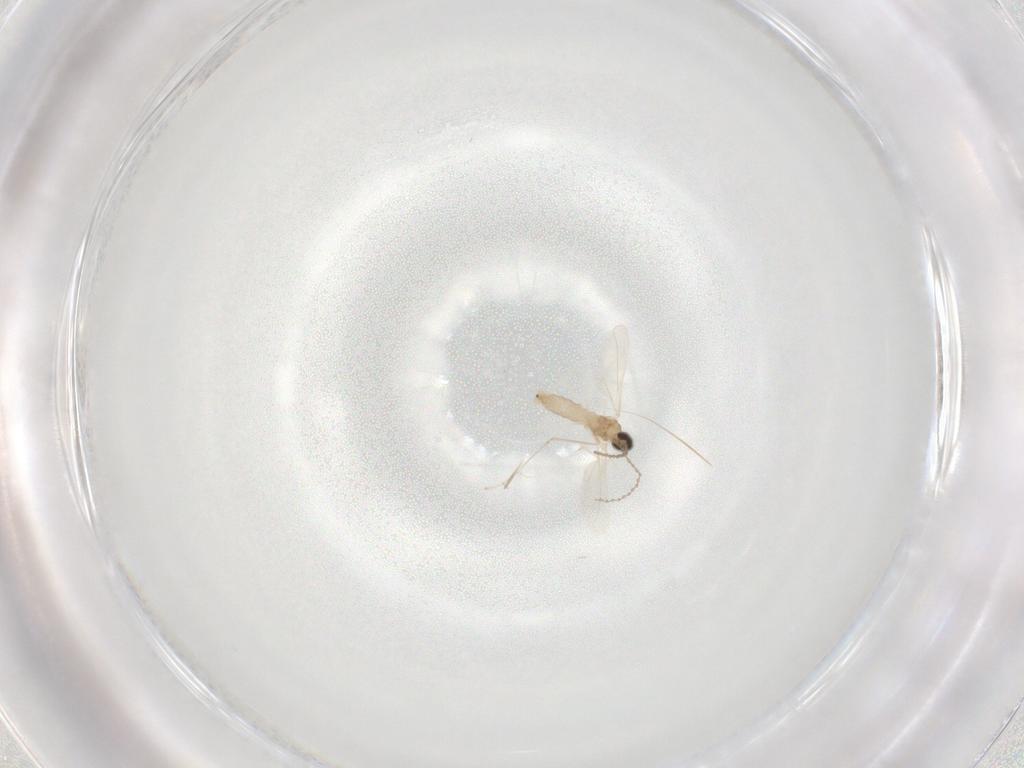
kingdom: Animalia
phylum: Arthropoda
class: Insecta
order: Diptera
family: Cecidomyiidae
